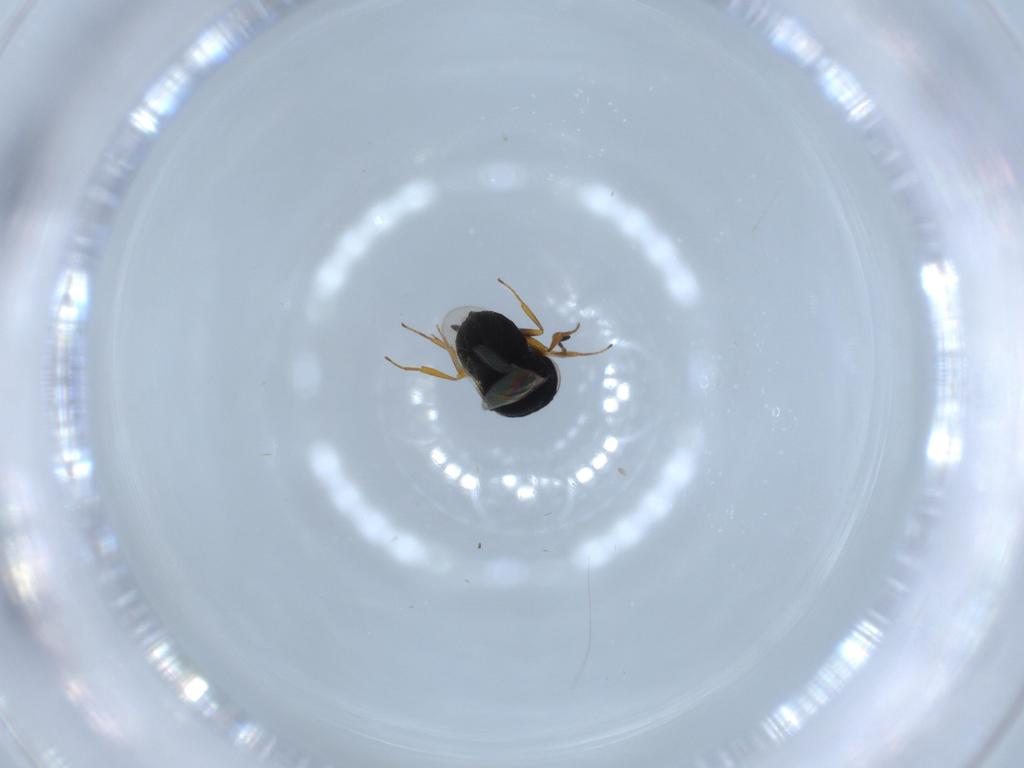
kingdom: Animalia
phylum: Arthropoda
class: Insecta
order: Hymenoptera
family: Scelionidae
